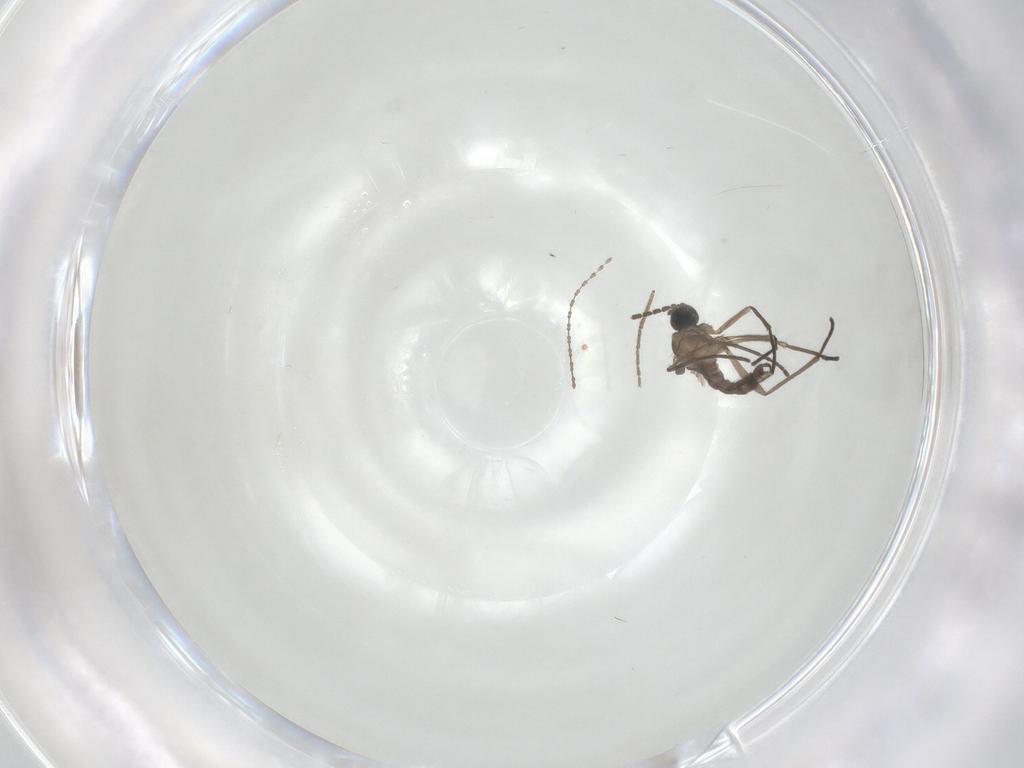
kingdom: Animalia
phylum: Arthropoda
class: Insecta
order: Diptera
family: Sciaridae
